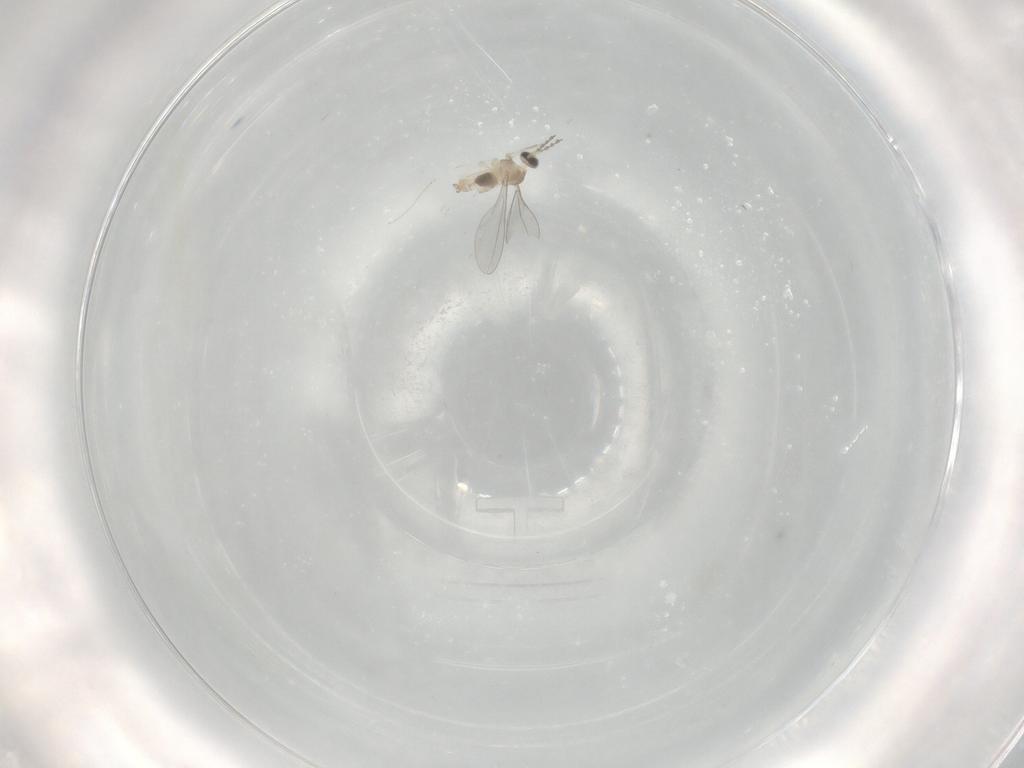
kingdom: Animalia
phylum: Arthropoda
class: Insecta
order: Diptera
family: Cecidomyiidae
